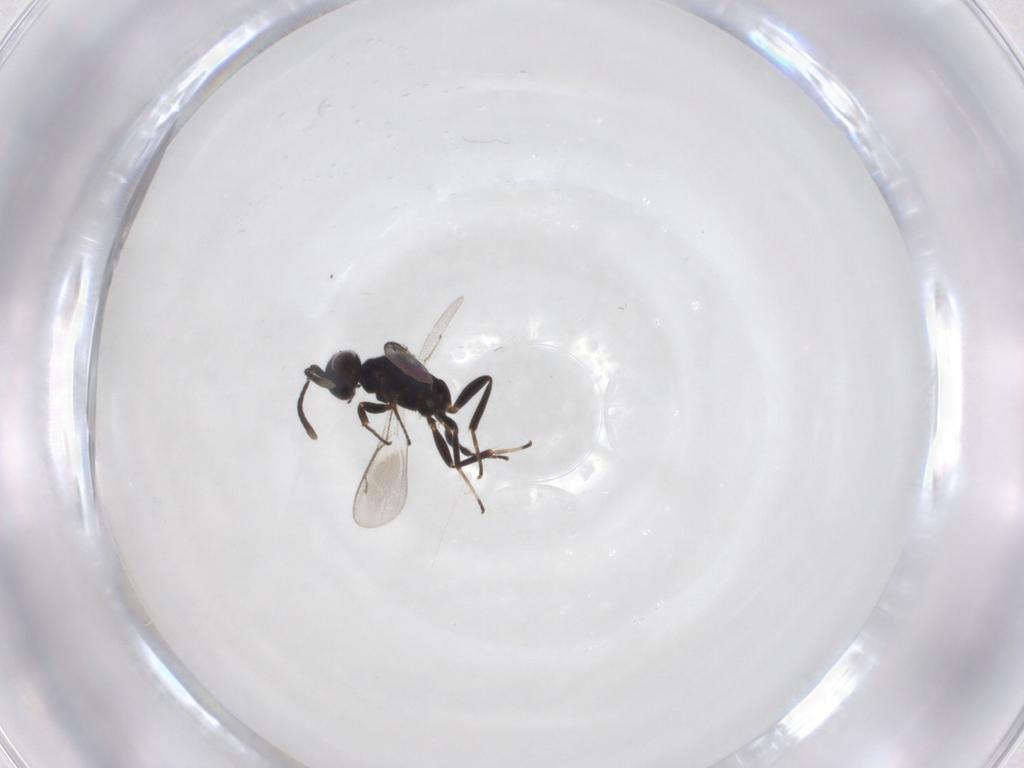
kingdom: Animalia
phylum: Arthropoda
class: Insecta
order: Hymenoptera
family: Eupelmidae
